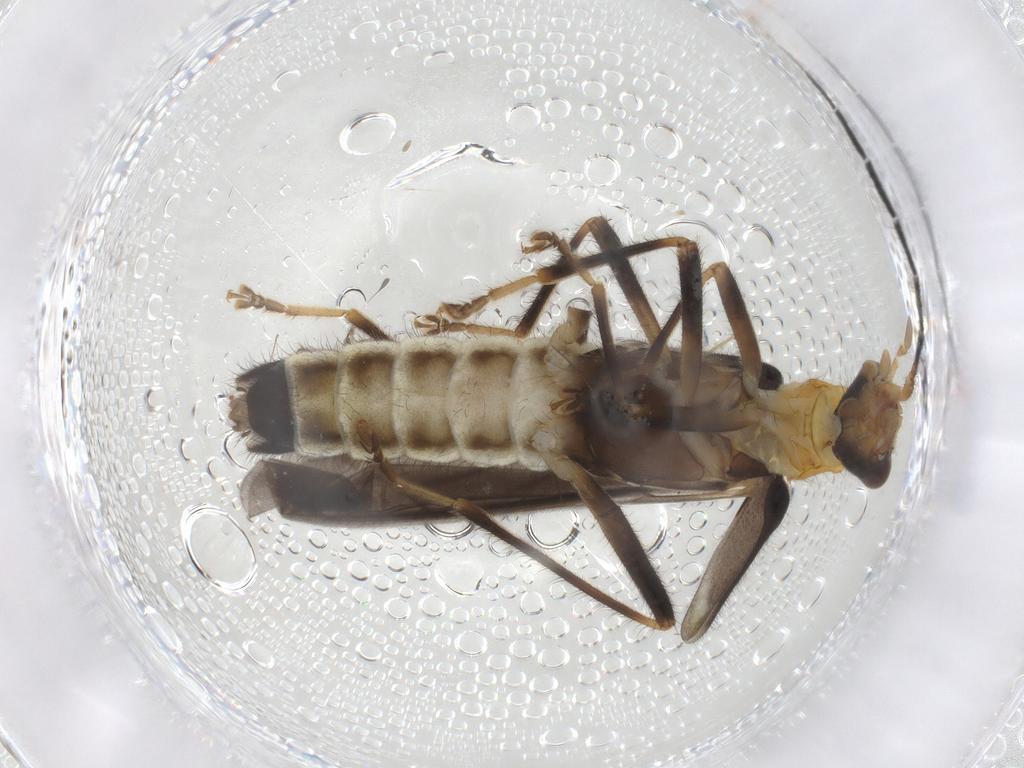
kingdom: Animalia
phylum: Arthropoda
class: Insecta
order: Coleoptera
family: Cantharidae
